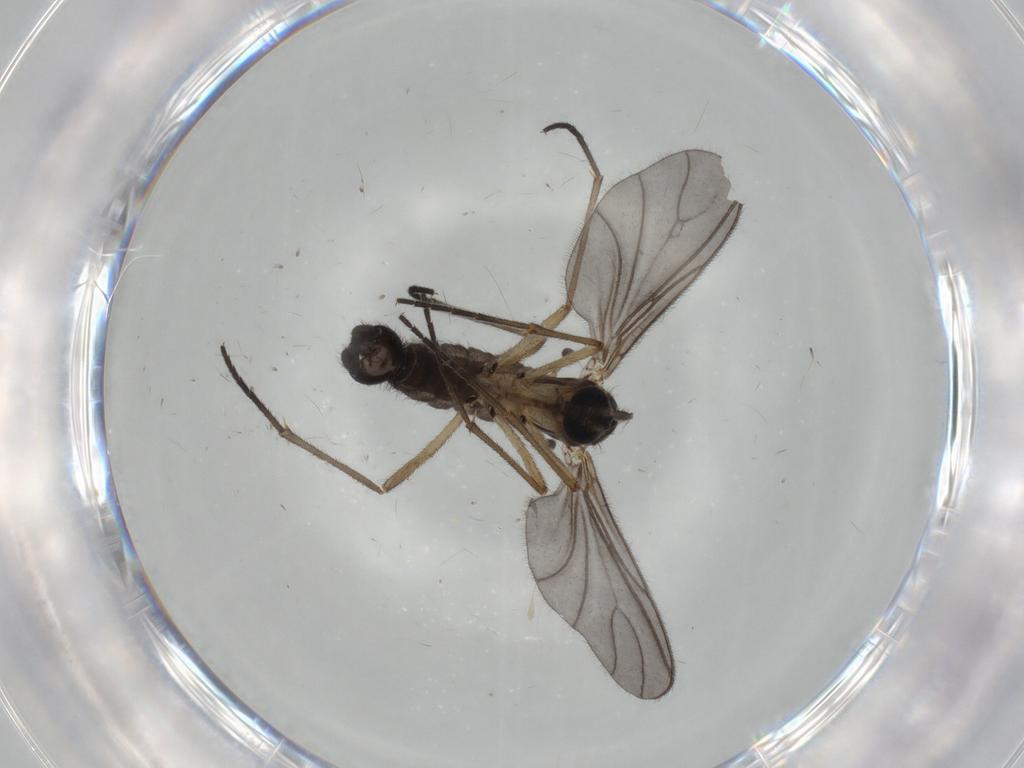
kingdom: Animalia
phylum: Arthropoda
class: Insecta
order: Diptera
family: Sciaridae
